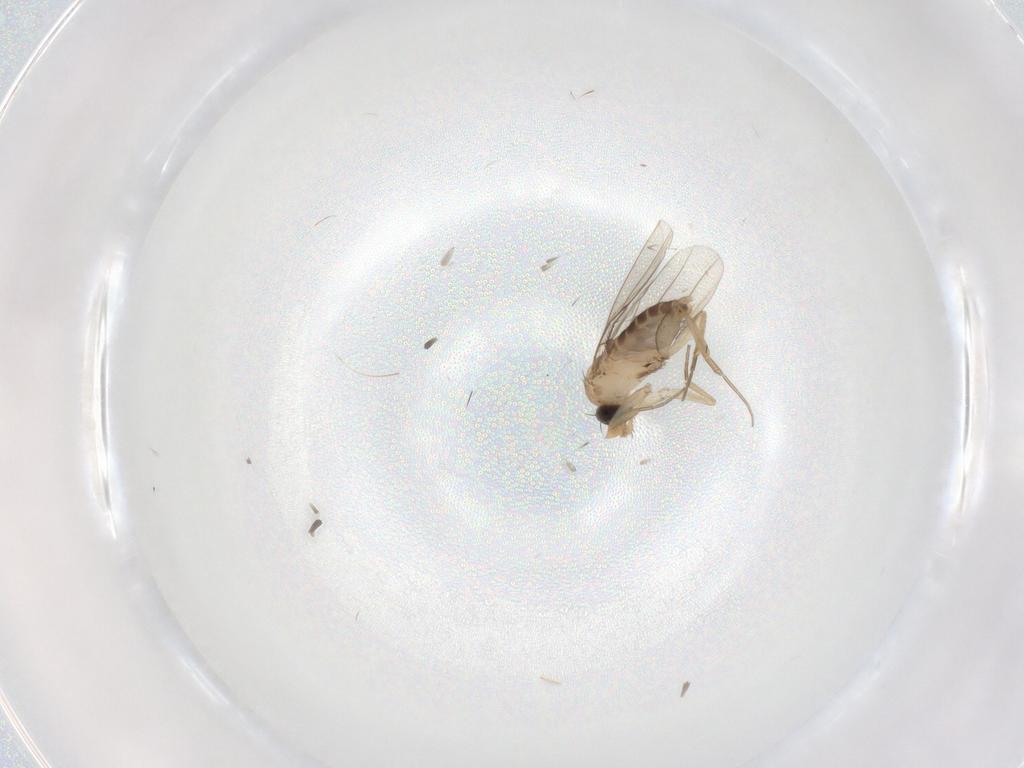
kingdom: Animalia
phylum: Arthropoda
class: Insecta
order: Diptera
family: Phoridae
